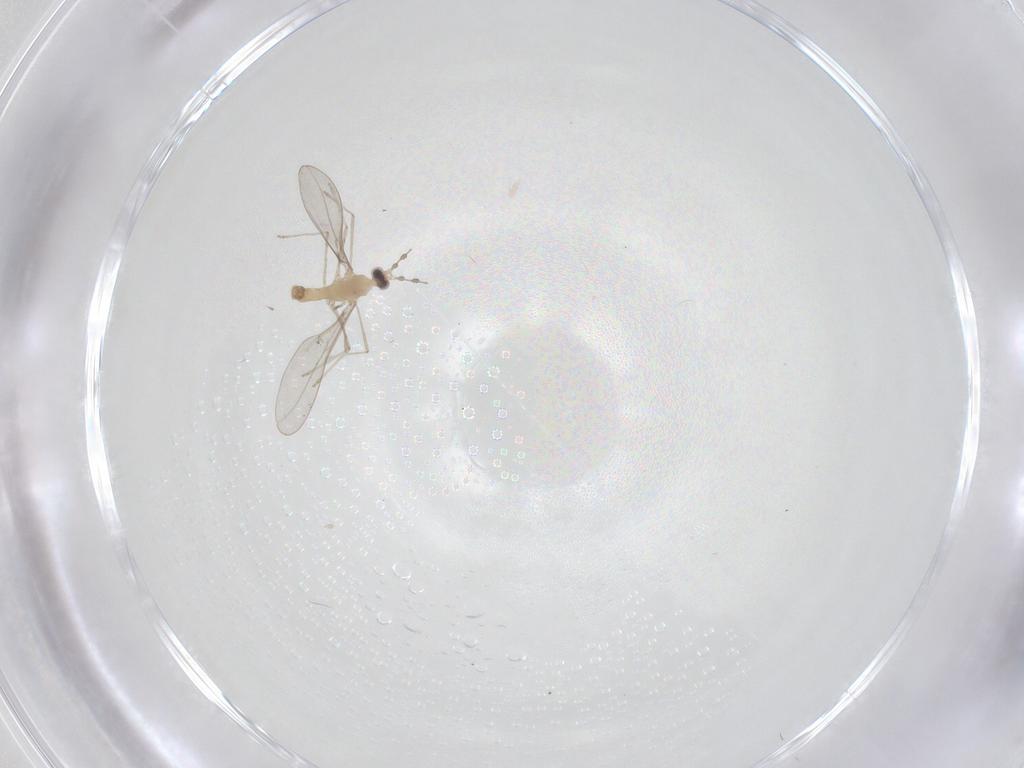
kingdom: Animalia
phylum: Arthropoda
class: Insecta
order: Diptera
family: Cecidomyiidae
